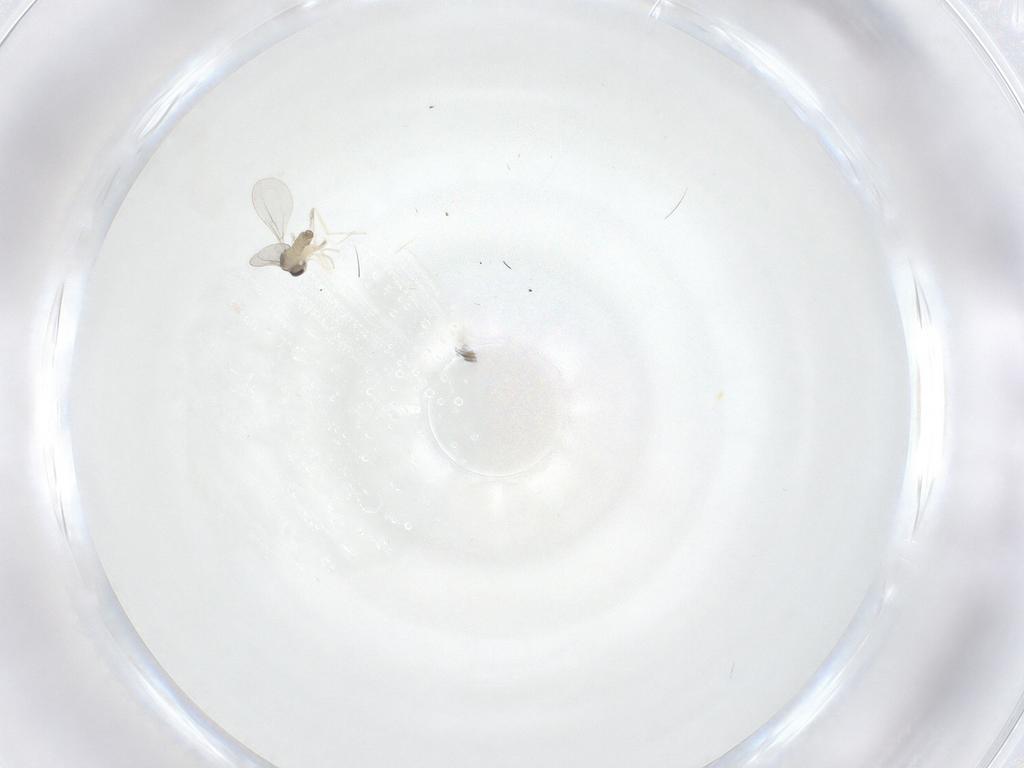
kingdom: Animalia
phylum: Arthropoda
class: Insecta
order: Diptera
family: Cecidomyiidae
